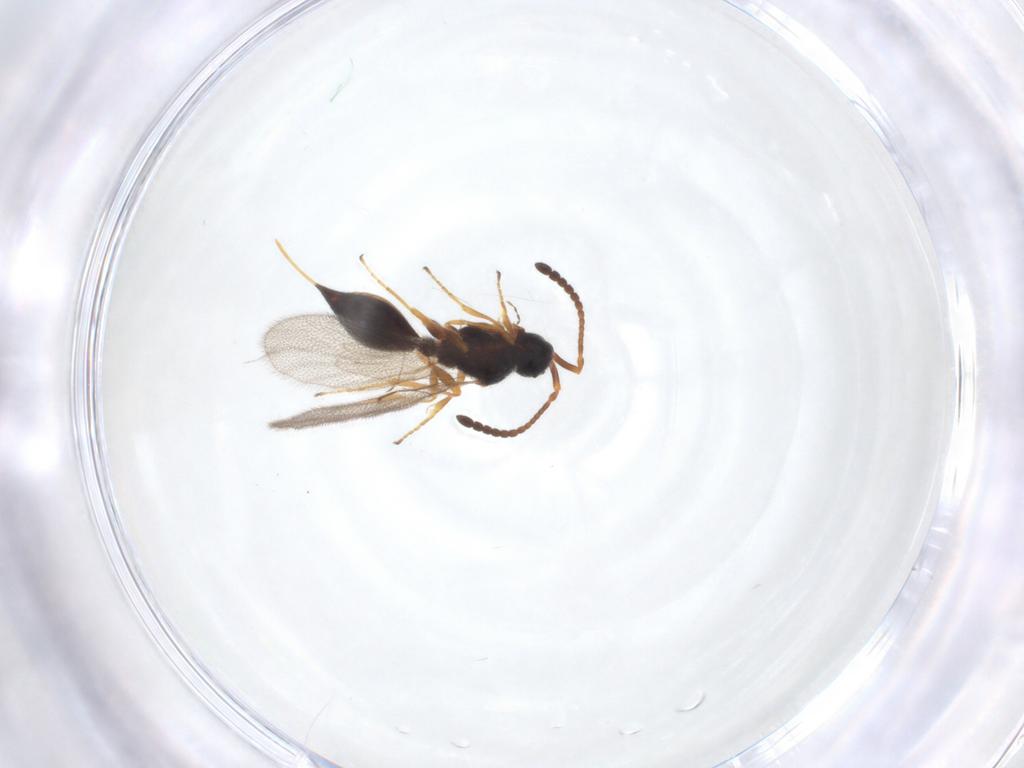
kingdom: Animalia
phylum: Arthropoda
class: Insecta
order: Hymenoptera
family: Diapriidae
